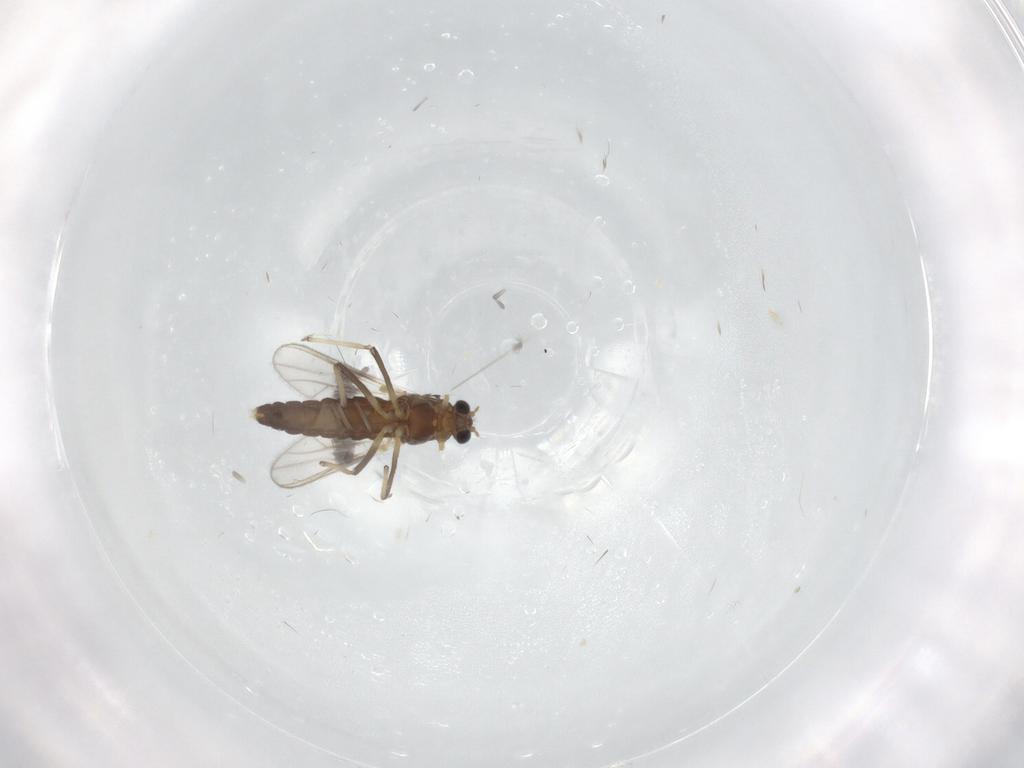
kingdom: Animalia
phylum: Arthropoda
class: Insecta
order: Diptera
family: Chironomidae
